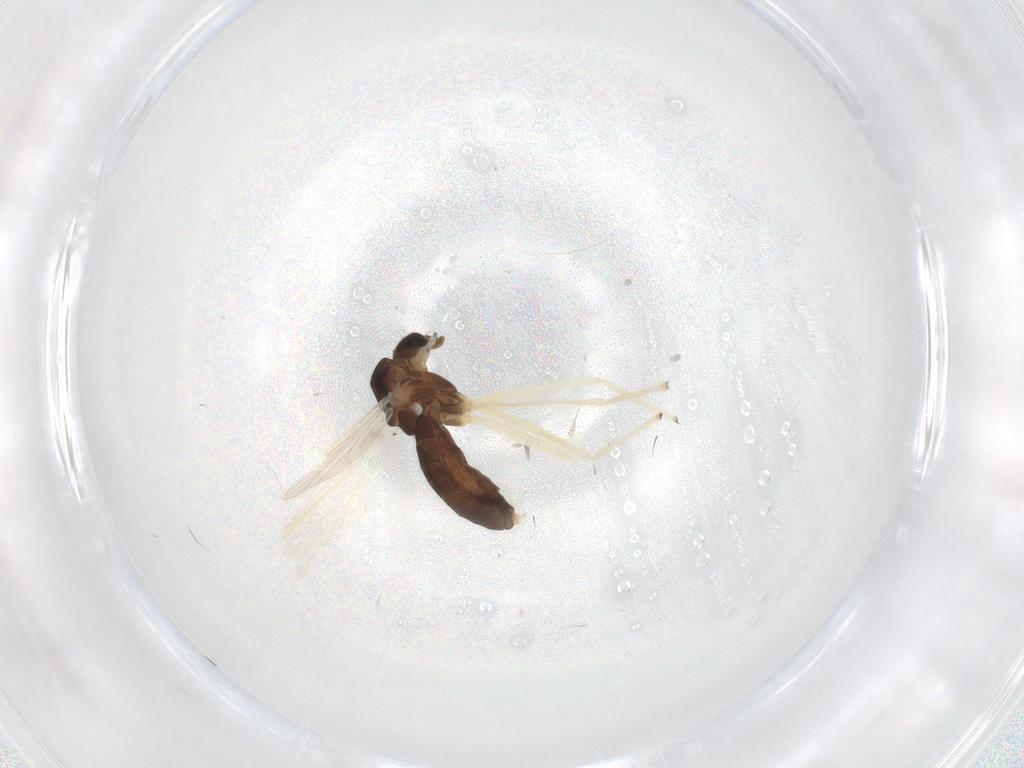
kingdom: Animalia
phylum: Arthropoda
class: Insecta
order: Diptera
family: Chironomidae
